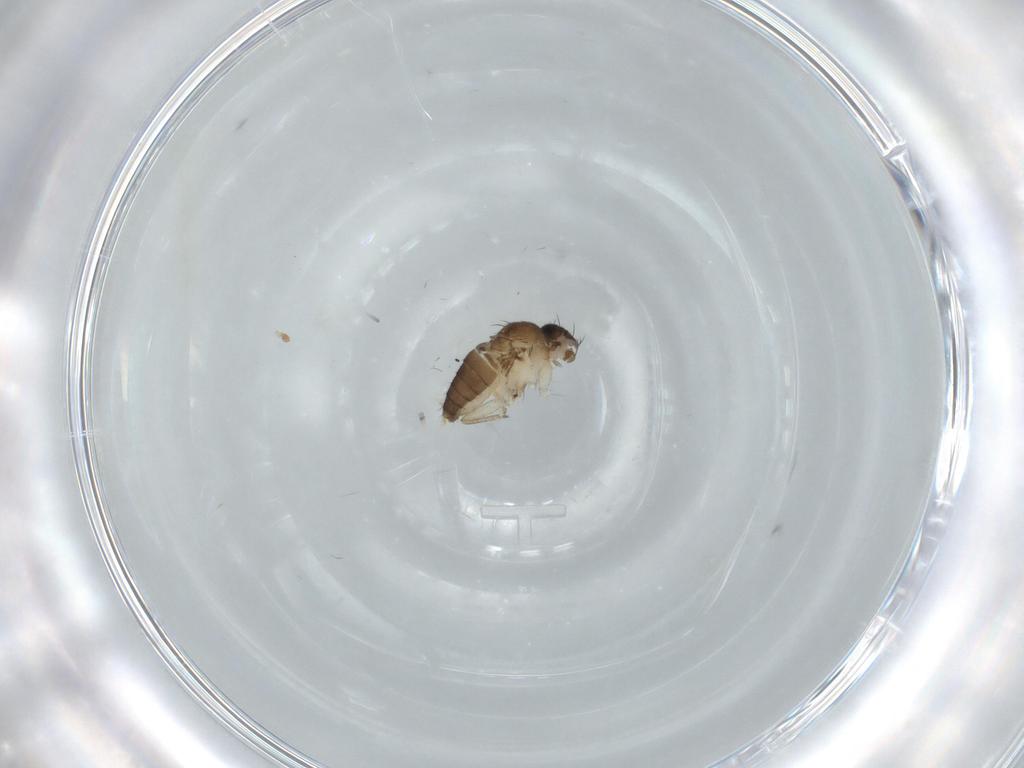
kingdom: Animalia
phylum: Arthropoda
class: Insecta
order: Diptera
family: Phoridae
